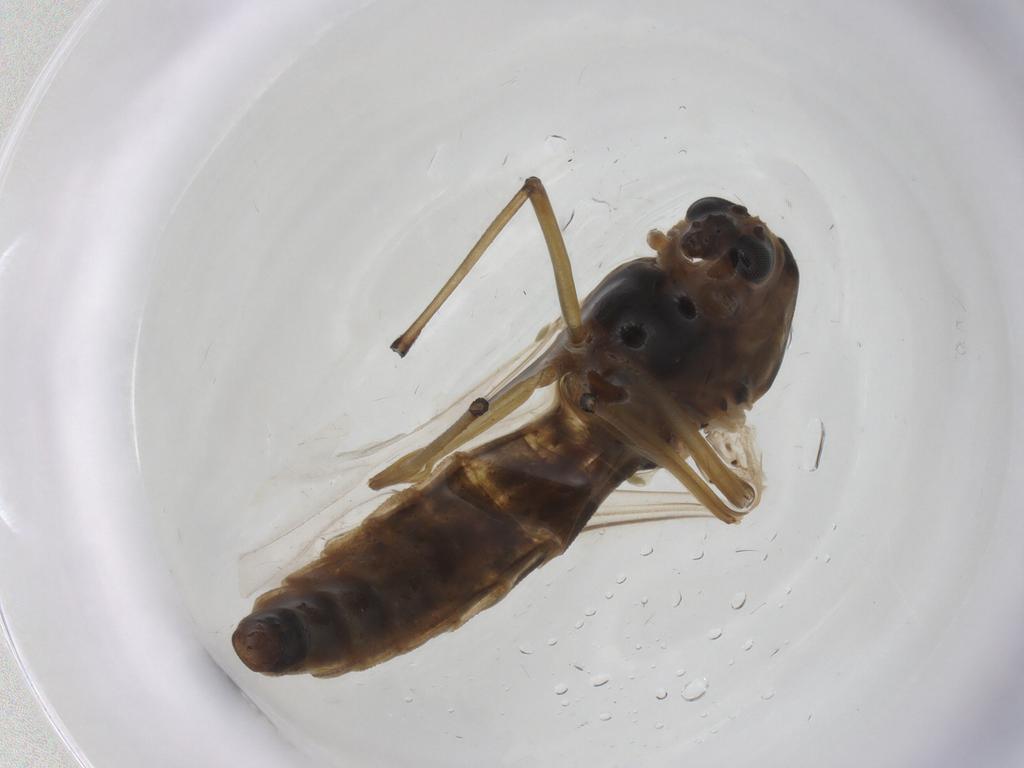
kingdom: Animalia
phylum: Arthropoda
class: Insecta
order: Diptera
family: Chironomidae
